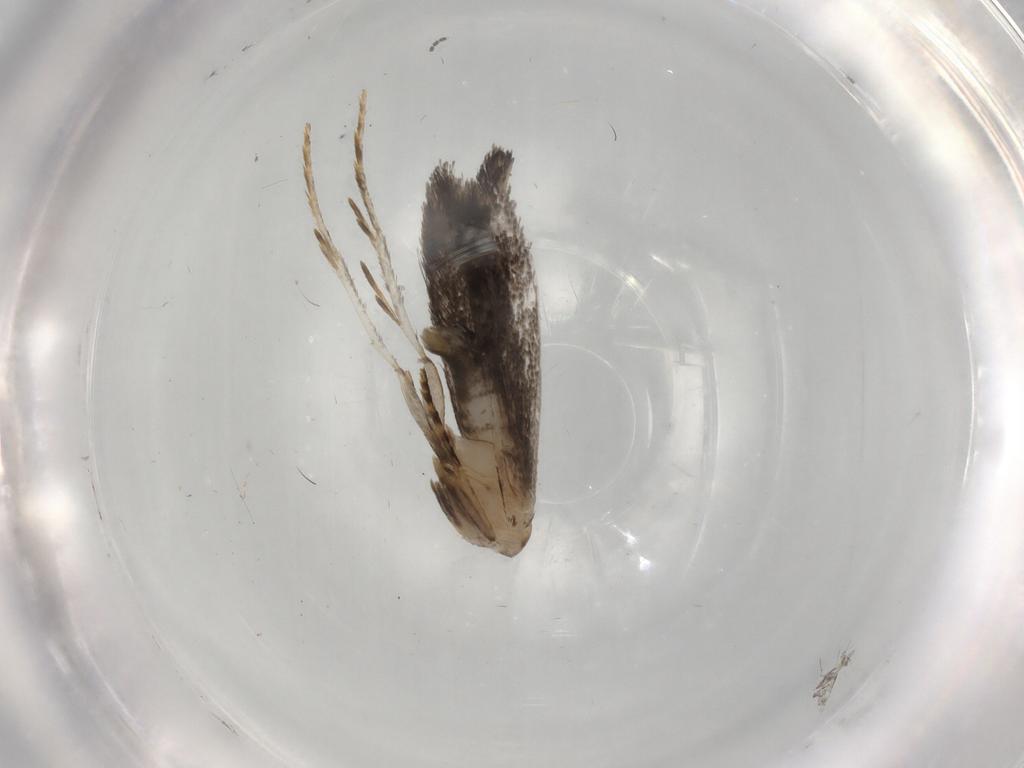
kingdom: Animalia
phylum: Arthropoda
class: Insecta
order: Lepidoptera
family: Tineidae
